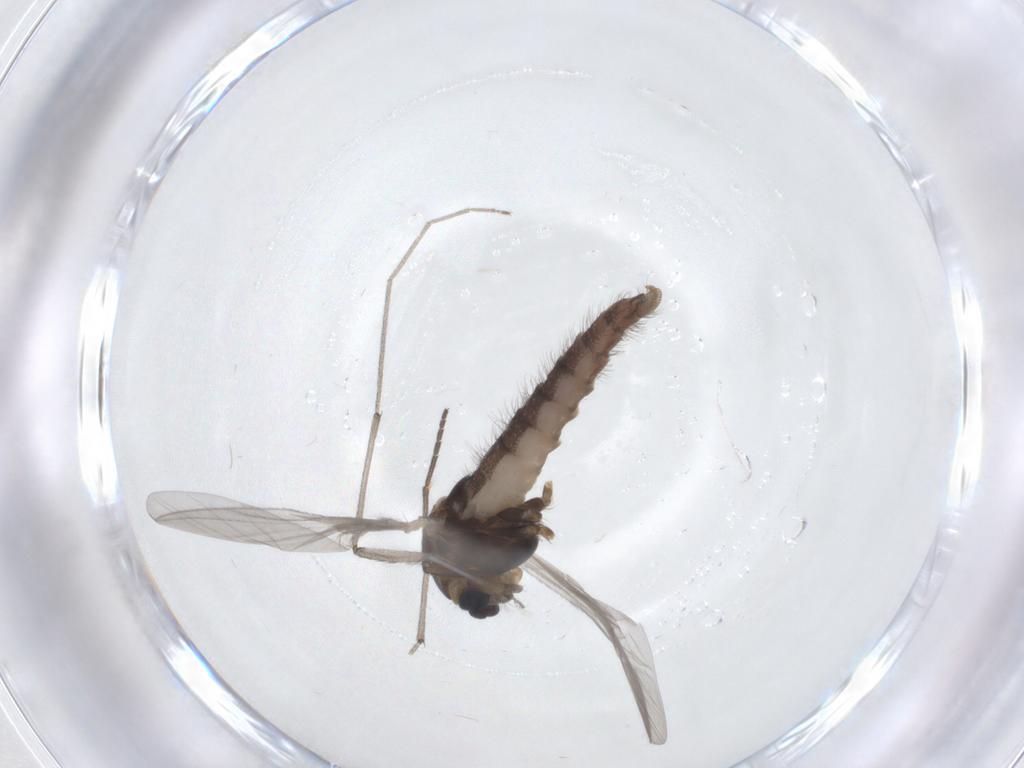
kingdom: Animalia
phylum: Arthropoda
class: Insecta
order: Diptera
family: Chironomidae
